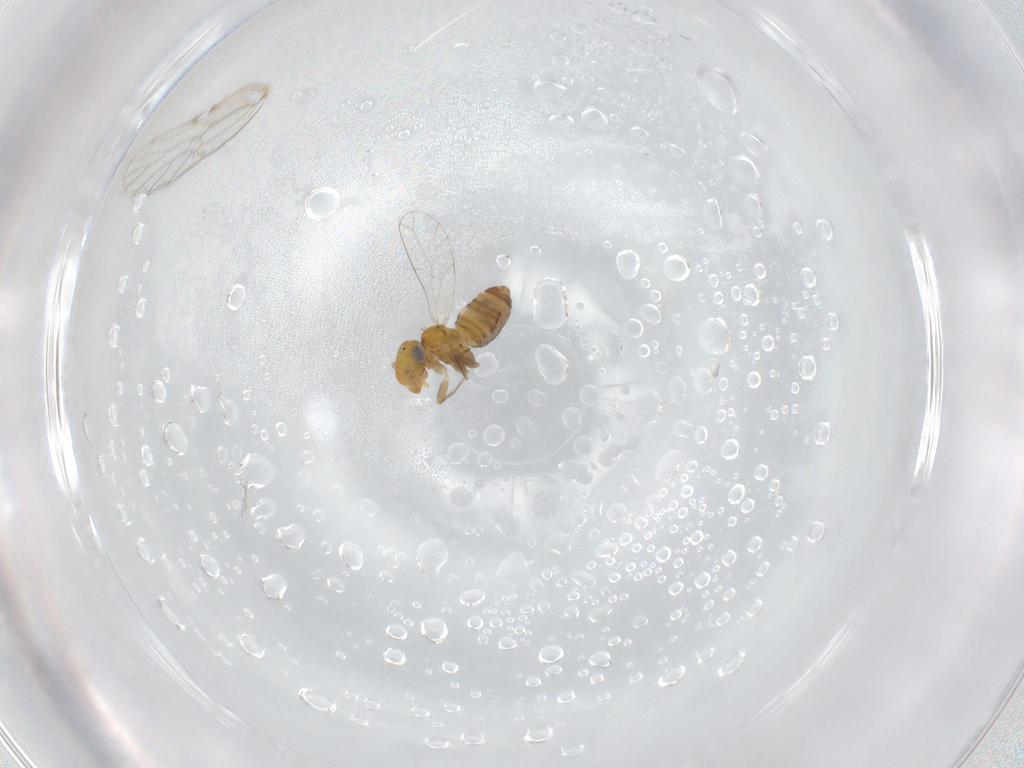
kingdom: Animalia
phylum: Arthropoda
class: Insecta
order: Psocodea
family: Prionoglarididae
